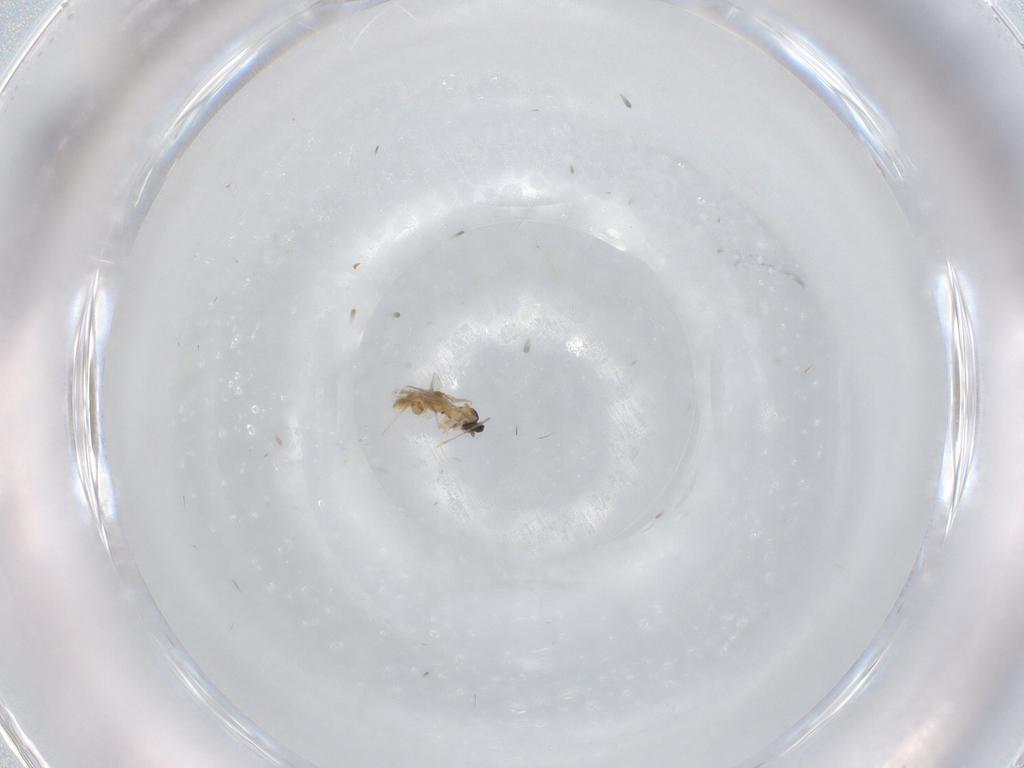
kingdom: Animalia
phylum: Arthropoda
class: Insecta
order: Diptera
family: Cecidomyiidae
